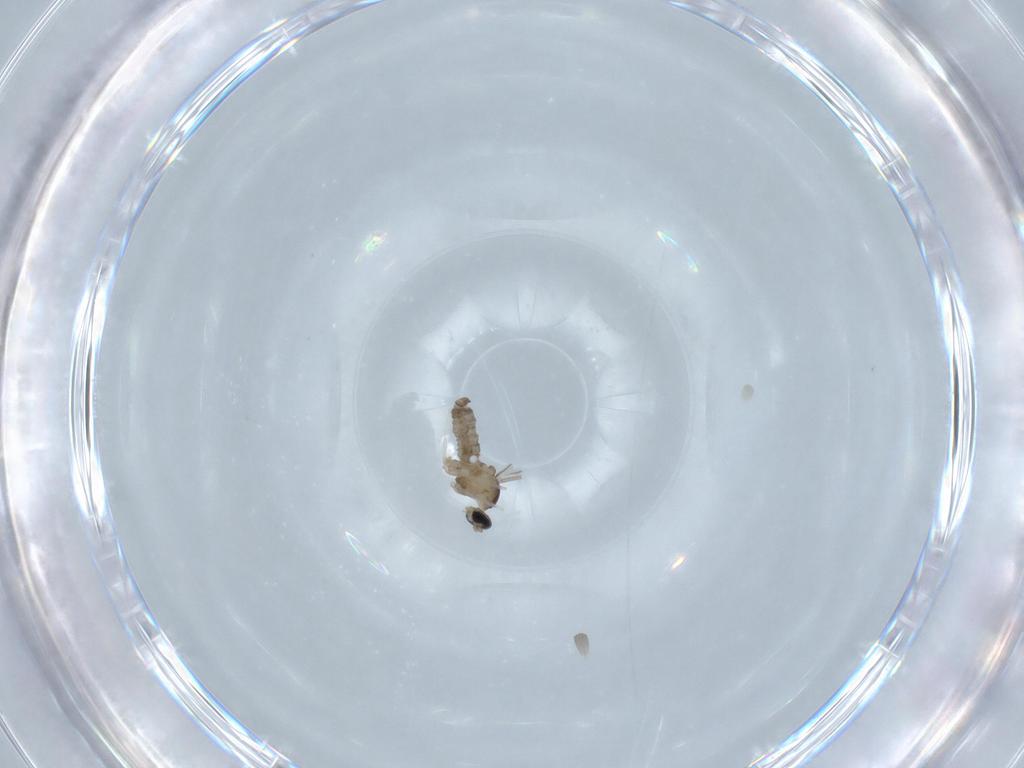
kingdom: Animalia
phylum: Arthropoda
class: Insecta
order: Diptera
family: Cecidomyiidae
